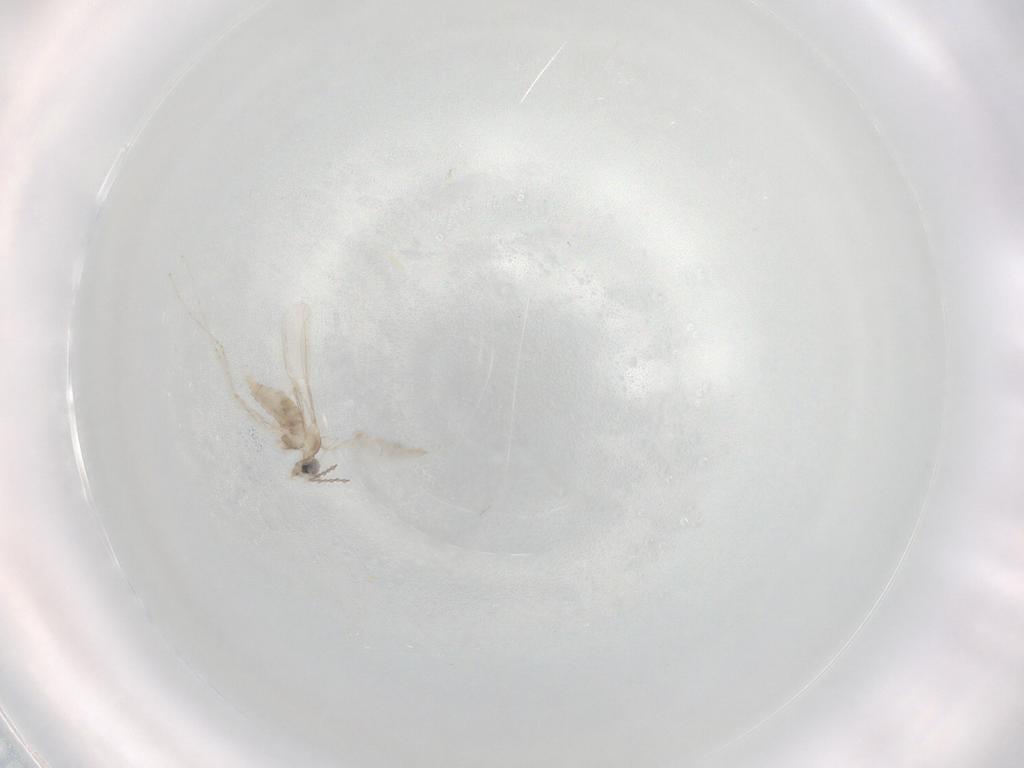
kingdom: Animalia
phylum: Arthropoda
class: Insecta
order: Diptera
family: Cecidomyiidae
